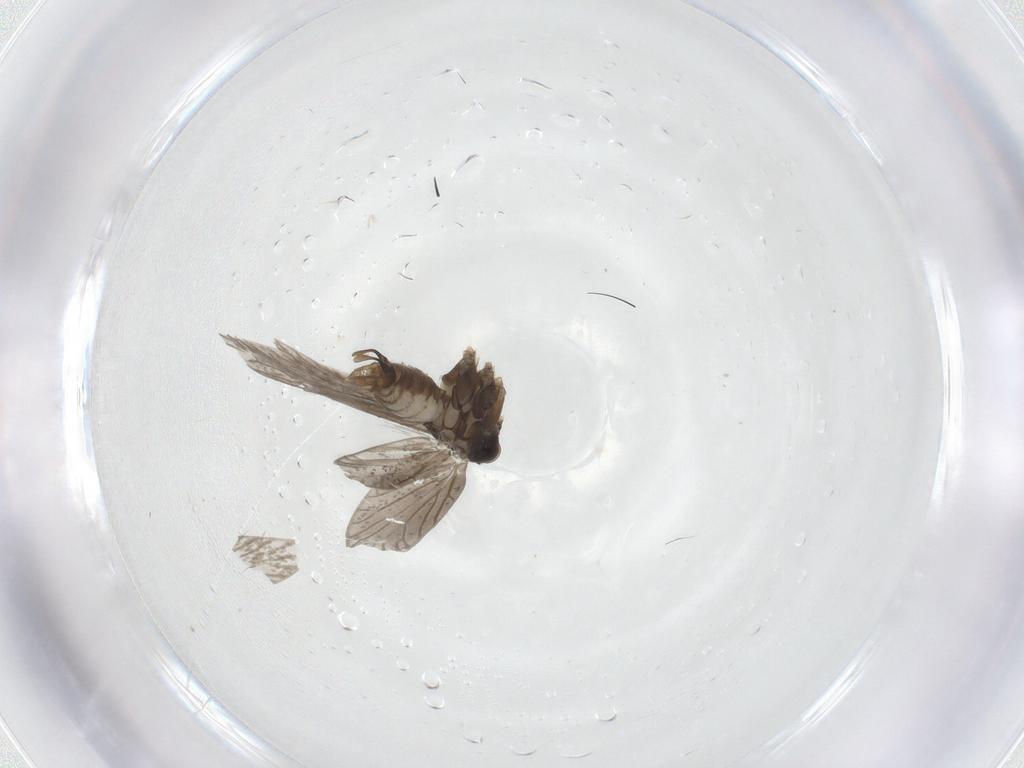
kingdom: Animalia
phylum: Arthropoda
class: Insecta
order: Lepidoptera
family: Micropterigidae
